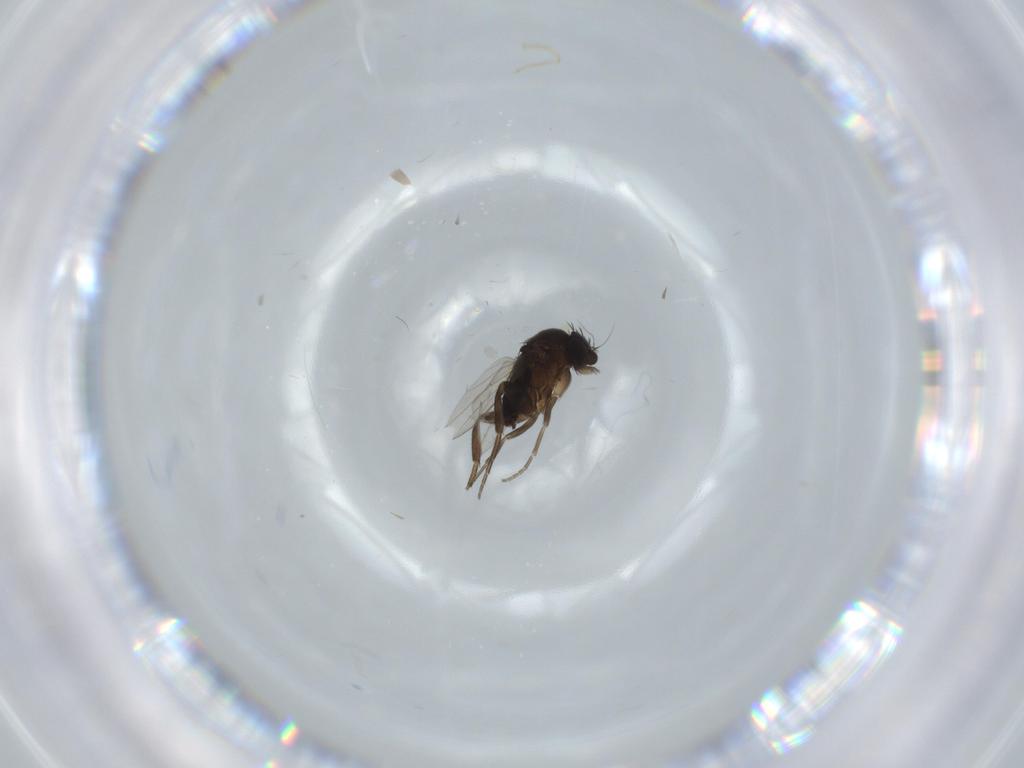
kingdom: Animalia
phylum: Arthropoda
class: Insecta
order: Diptera
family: Phoridae
